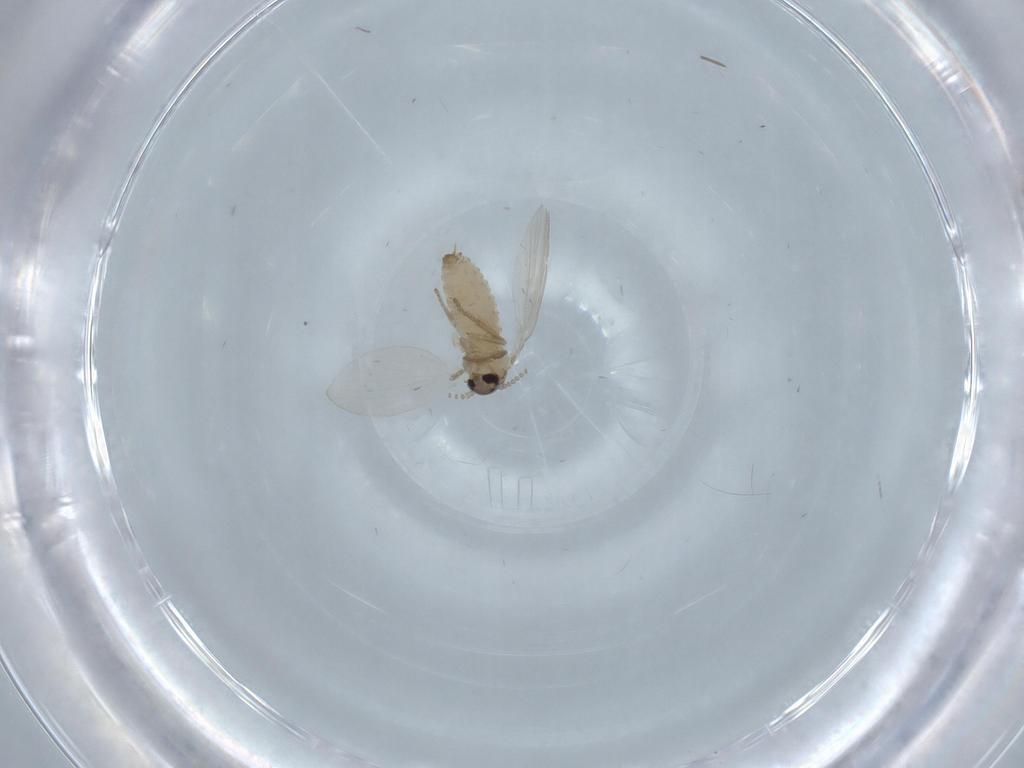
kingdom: Animalia
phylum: Arthropoda
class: Insecta
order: Diptera
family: Psychodidae
